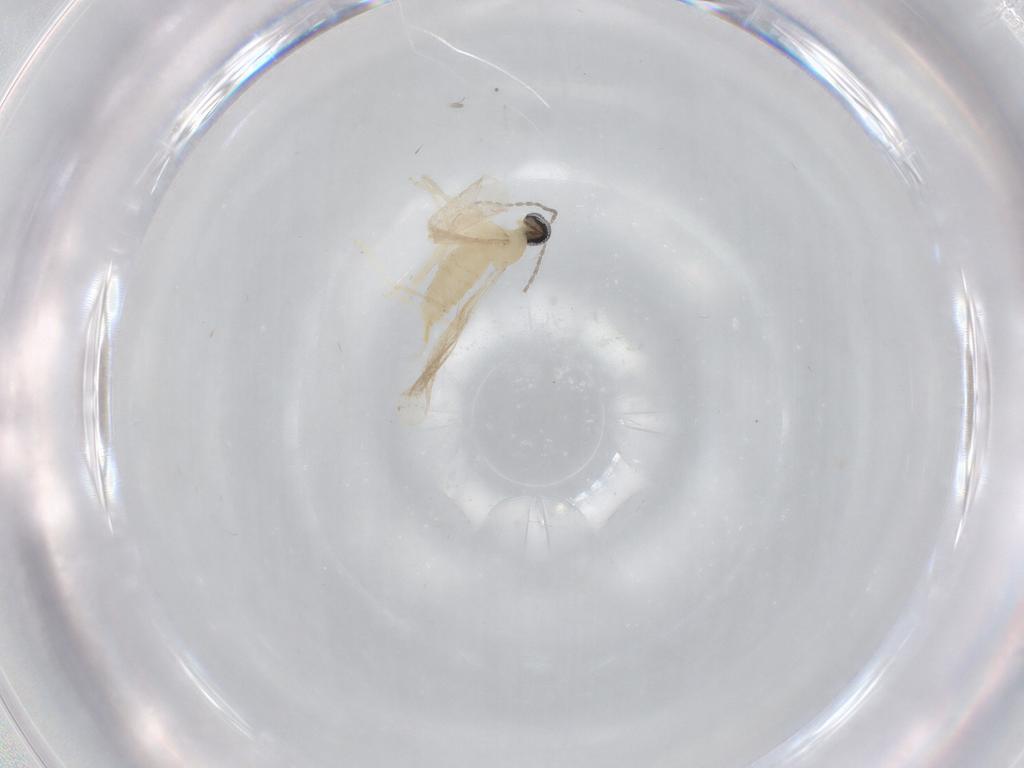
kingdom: Animalia
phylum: Arthropoda
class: Insecta
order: Diptera
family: Cecidomyiidae
